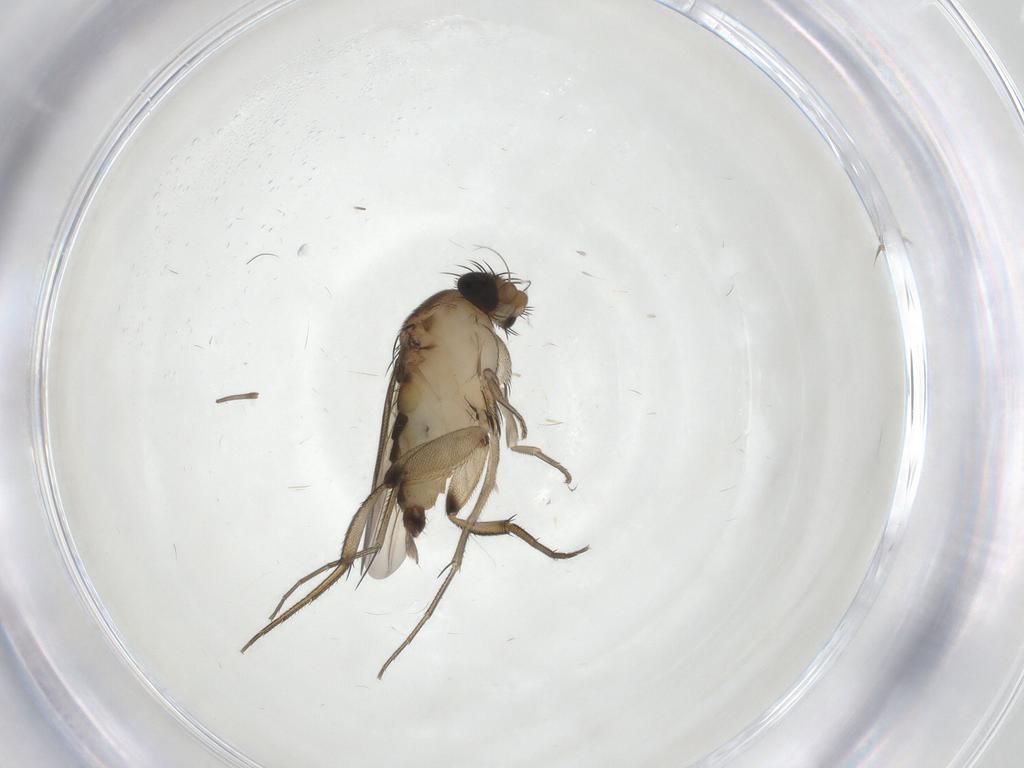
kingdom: Animalia
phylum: Arthropoda
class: Insecta
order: Diptera
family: Phoridae
